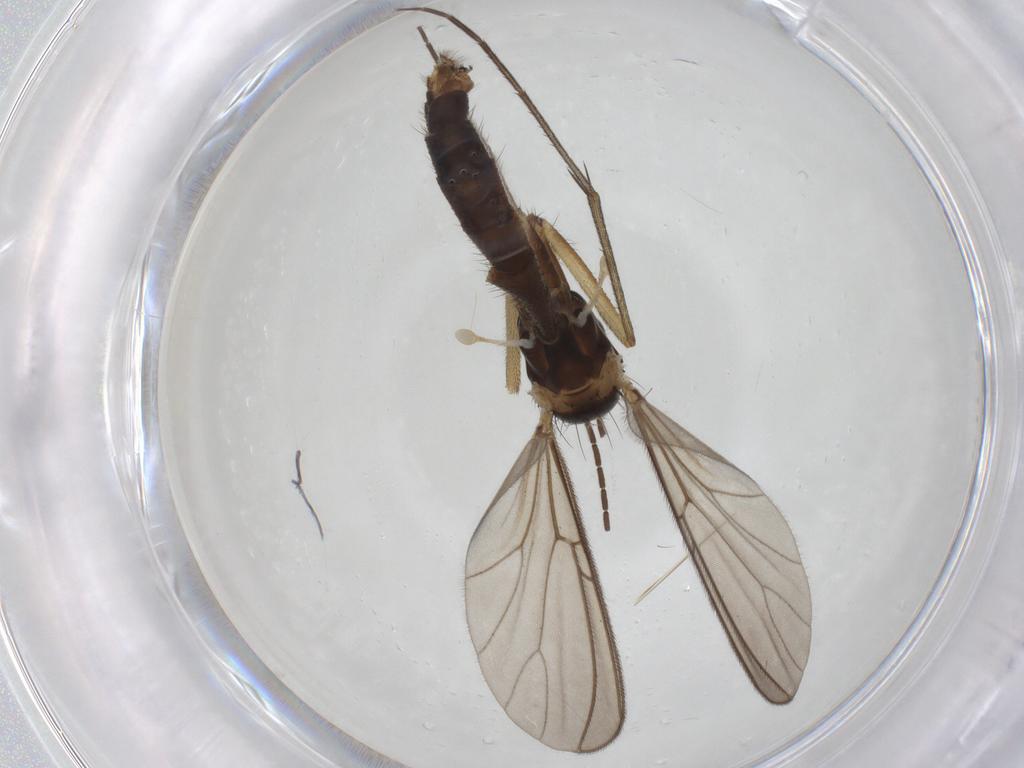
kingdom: Animalia
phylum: Arthropoda
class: Insecta
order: Diptera
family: Mycetophilidae
